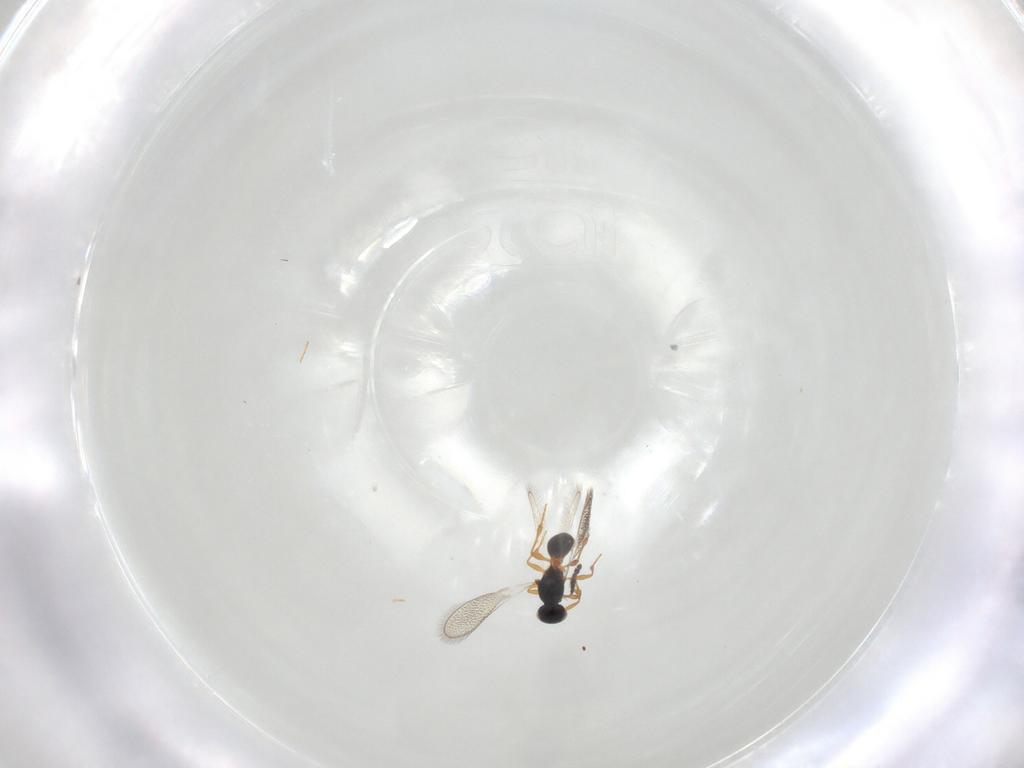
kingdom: Animalia
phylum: Arthropoda
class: Insecta
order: Hymenoptera
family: Platygastridae
